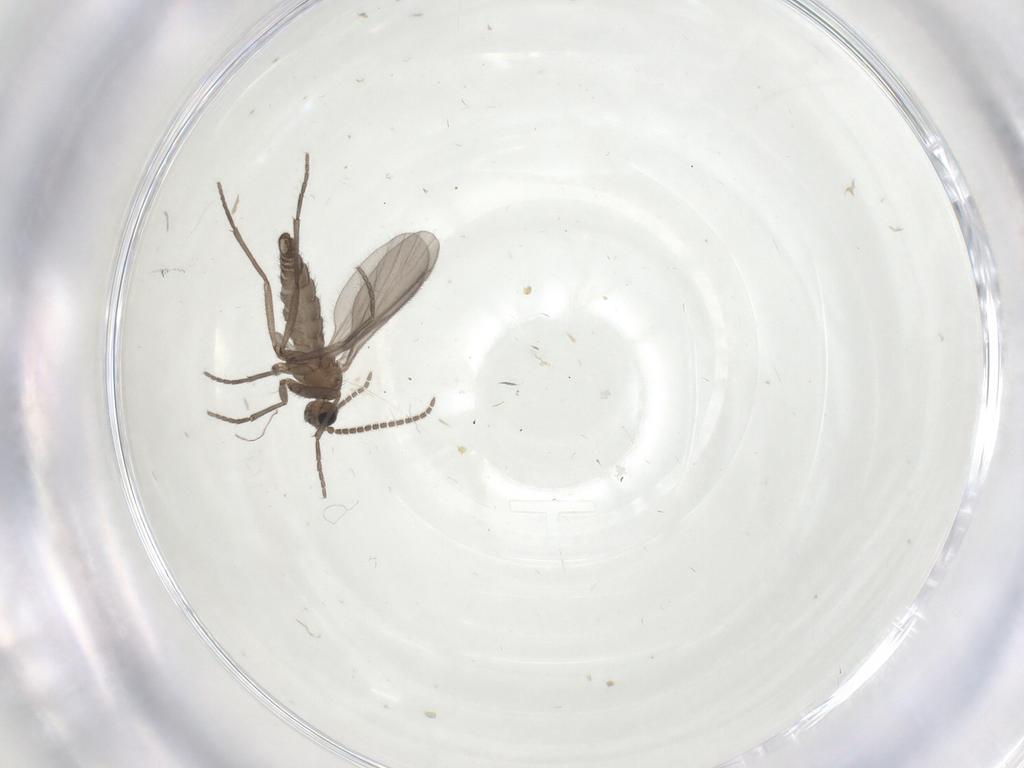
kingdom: Animalia
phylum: Arthropoda
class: Insecta
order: Diptera
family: Sciaridae
